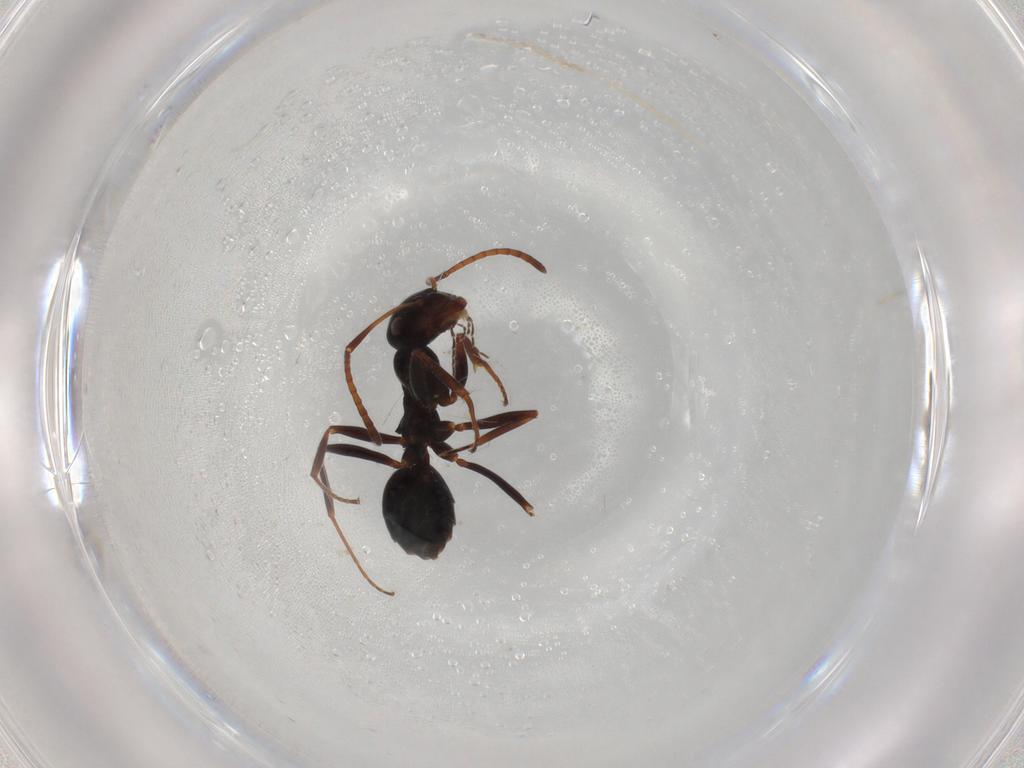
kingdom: Animalia
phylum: Arthropoda
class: Insecta
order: Hymenoptera
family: Formicidae
